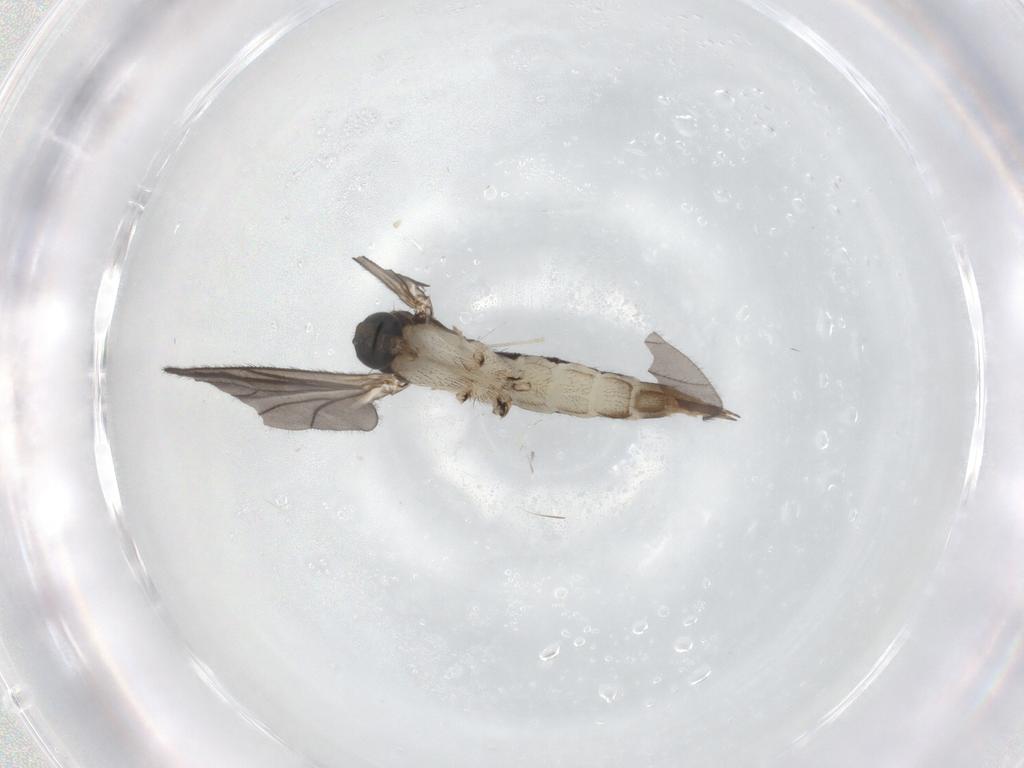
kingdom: Animalia
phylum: Arthropoda
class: Insecta
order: Diptera
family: Sciaridae
